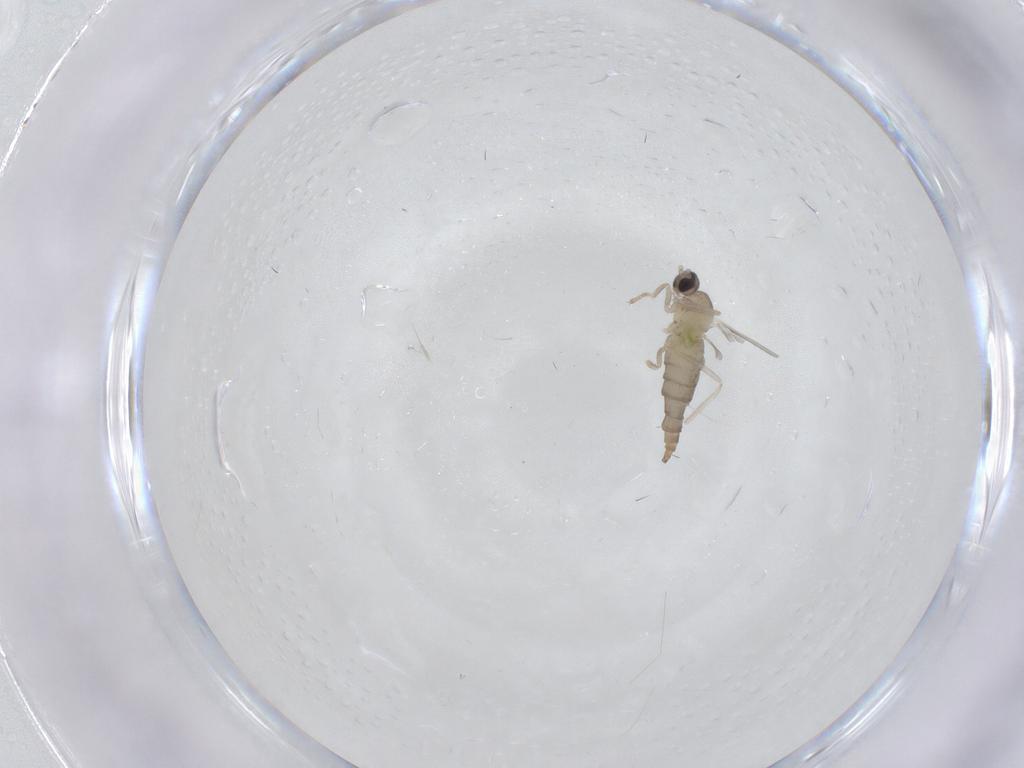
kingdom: Animalia
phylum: Arthropoda
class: Insecta
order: Diptera
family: Cecidomyiidae
